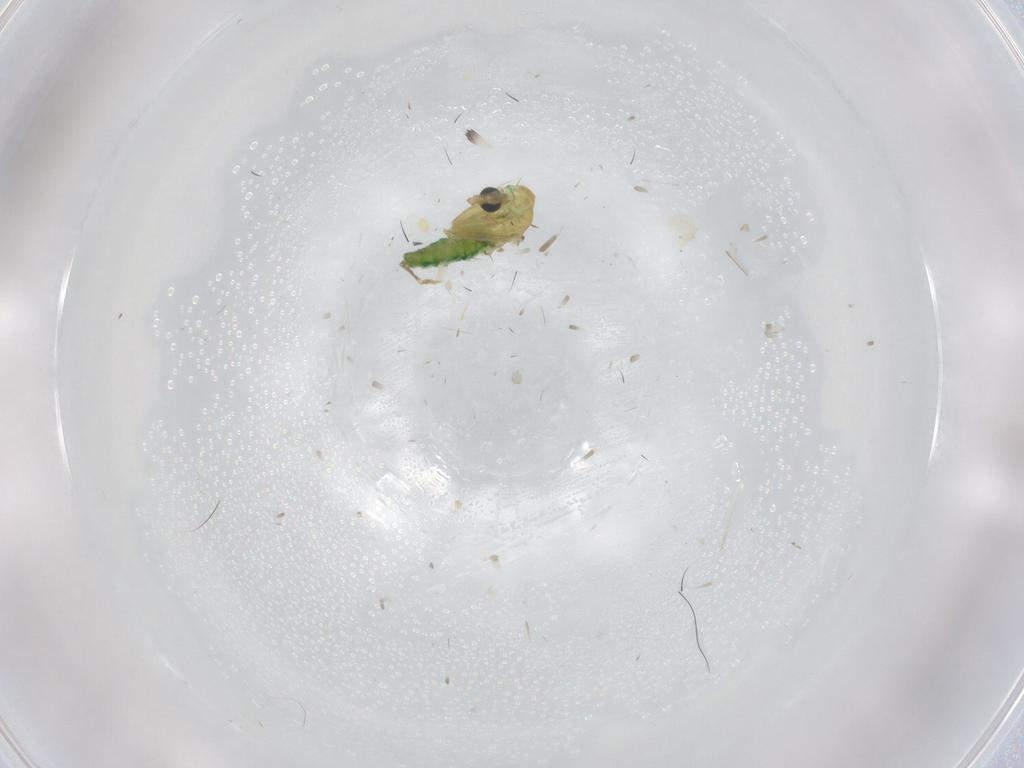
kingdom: Animalia
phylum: Arthropoda
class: Insecta
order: Diptera
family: Chironomidae
